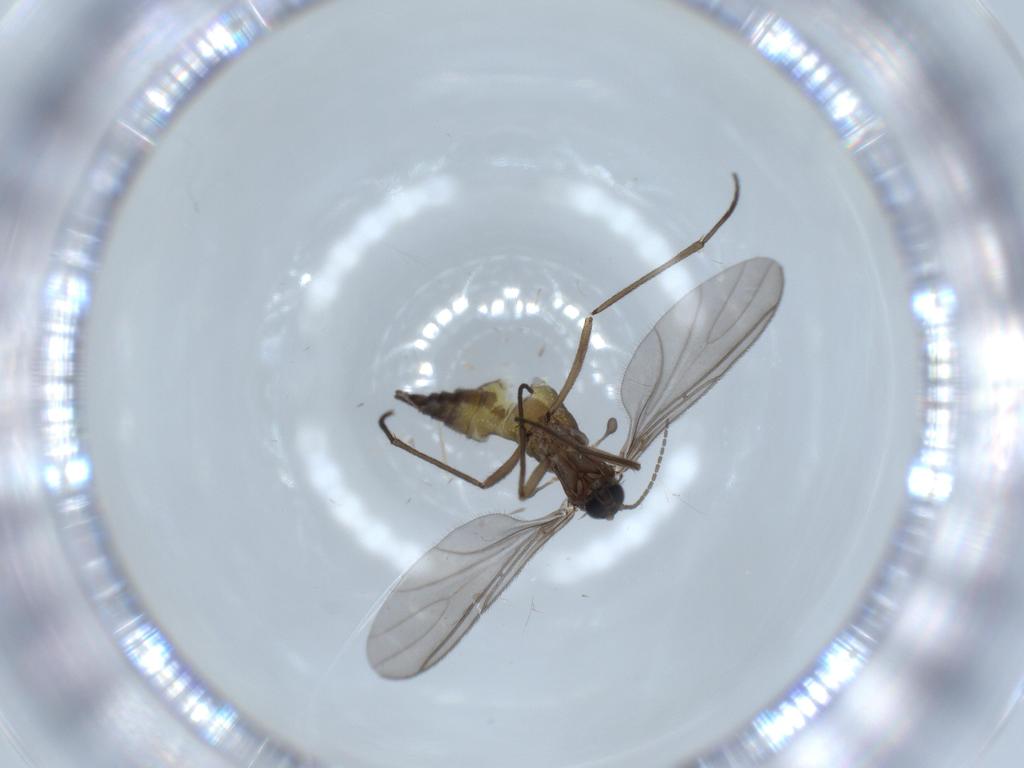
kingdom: Animalia
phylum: Arthropoda
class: Insecta
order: Diptera
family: Sciaridae
